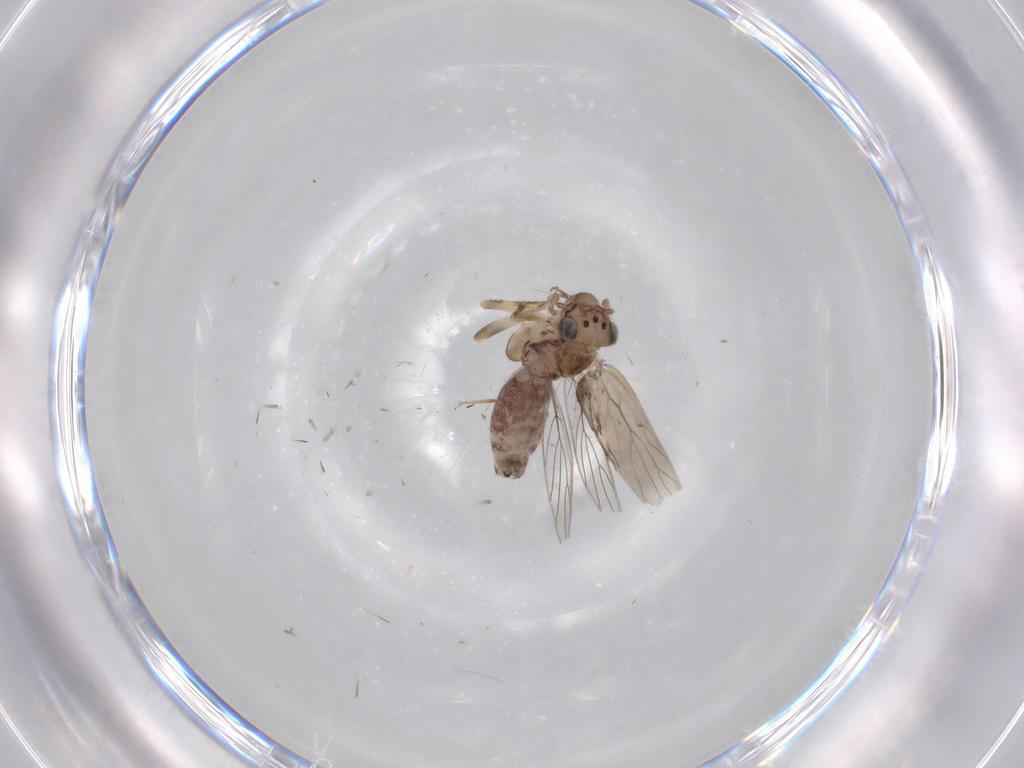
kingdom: Animalia
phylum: Arthropoda
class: Insecta
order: Psocodea
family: Lepidopsocidae
